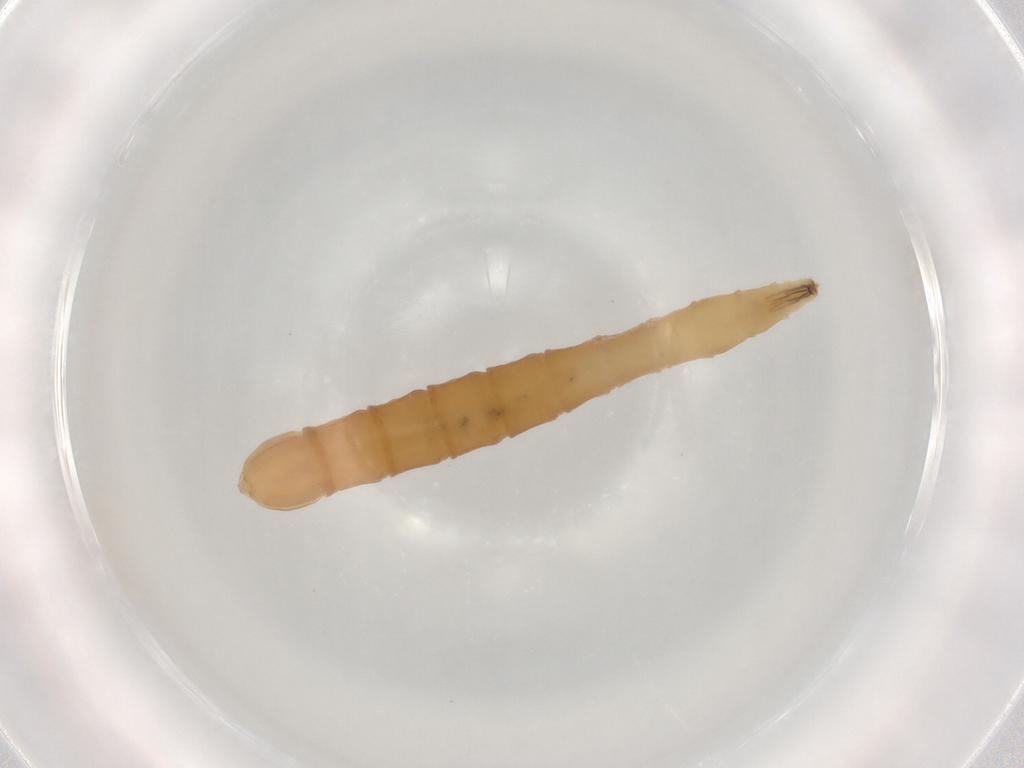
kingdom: Animalia
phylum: Arthropoda
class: Insecta
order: Diptera
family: Empididae
